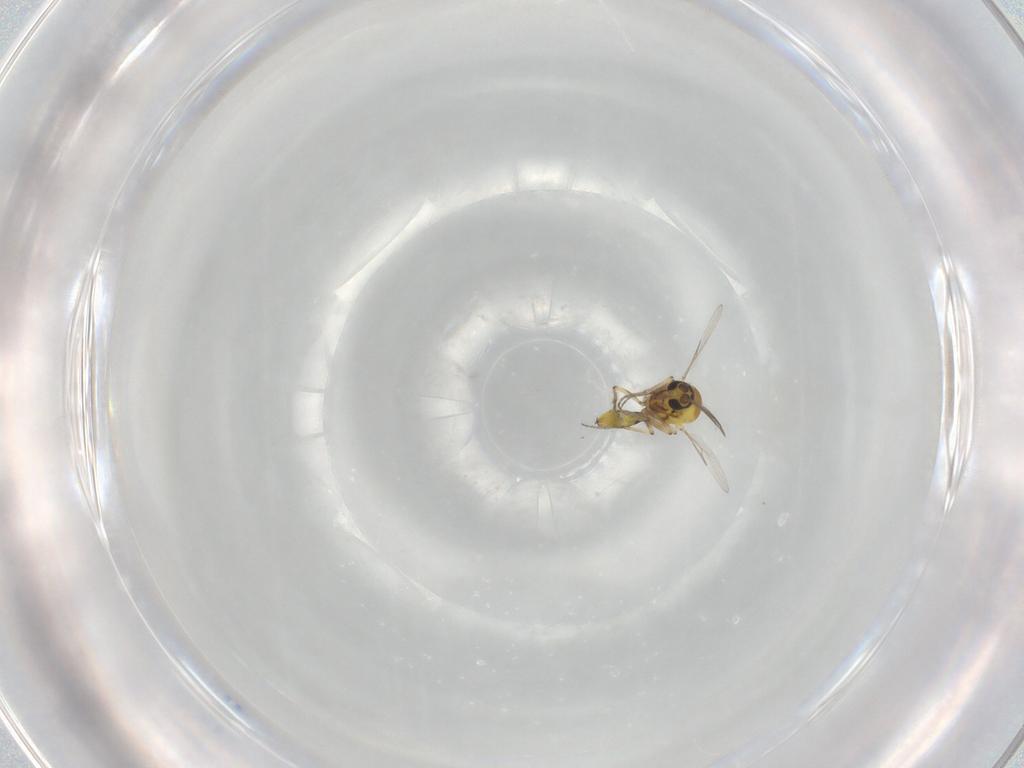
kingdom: Animalia
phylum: Arthropoda
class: Insecta
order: Diptera
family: Ceratopogonidae
